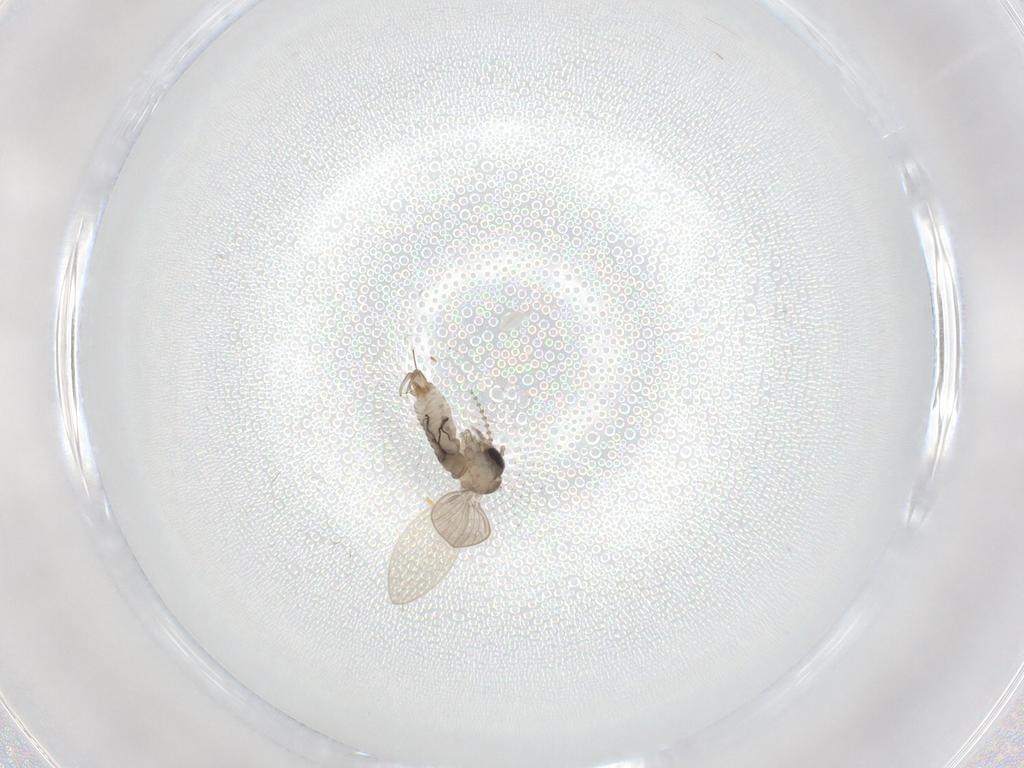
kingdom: Animalia
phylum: Arthropoda
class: Insecta
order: Diptera
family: Psychodidae
